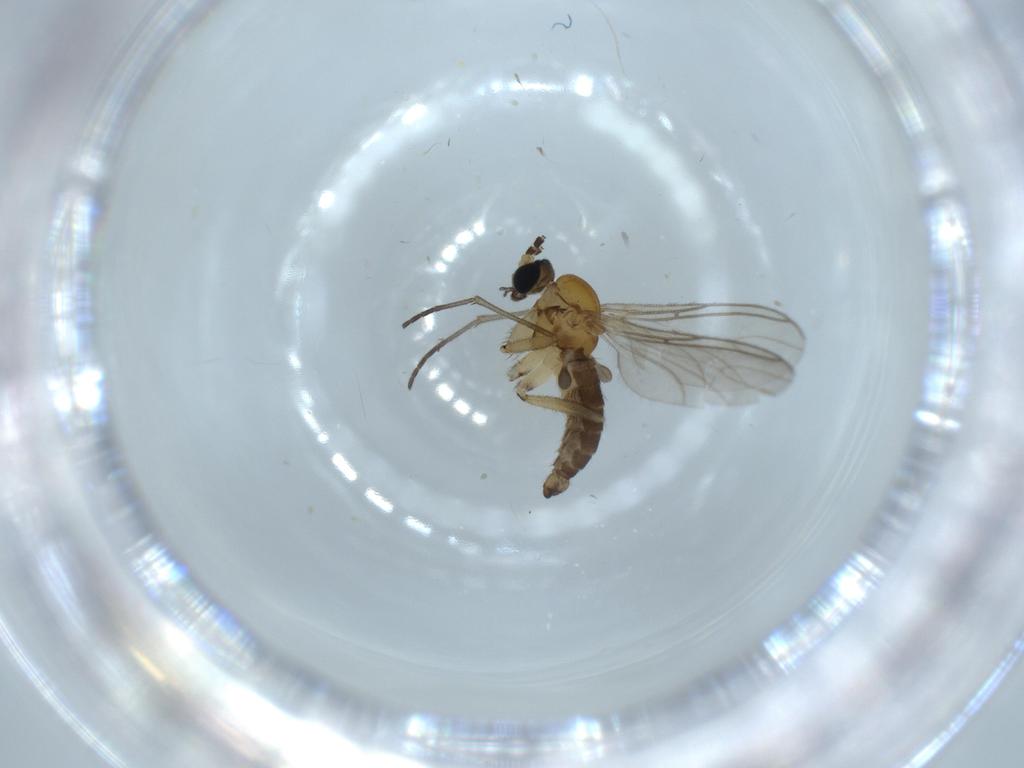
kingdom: Animalia
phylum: Arthropoda
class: Insecta
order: Diptera
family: Sciaridae
